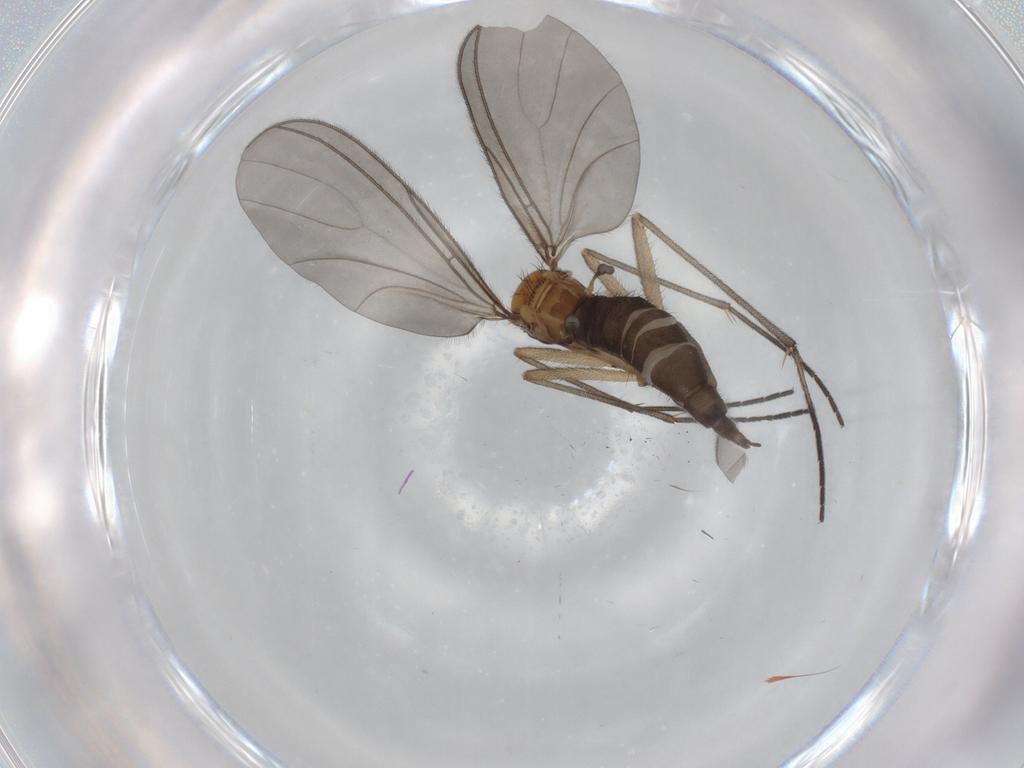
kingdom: Animalia
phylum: Arthropoda
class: Insecta
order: Diptera
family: Sciaridae
